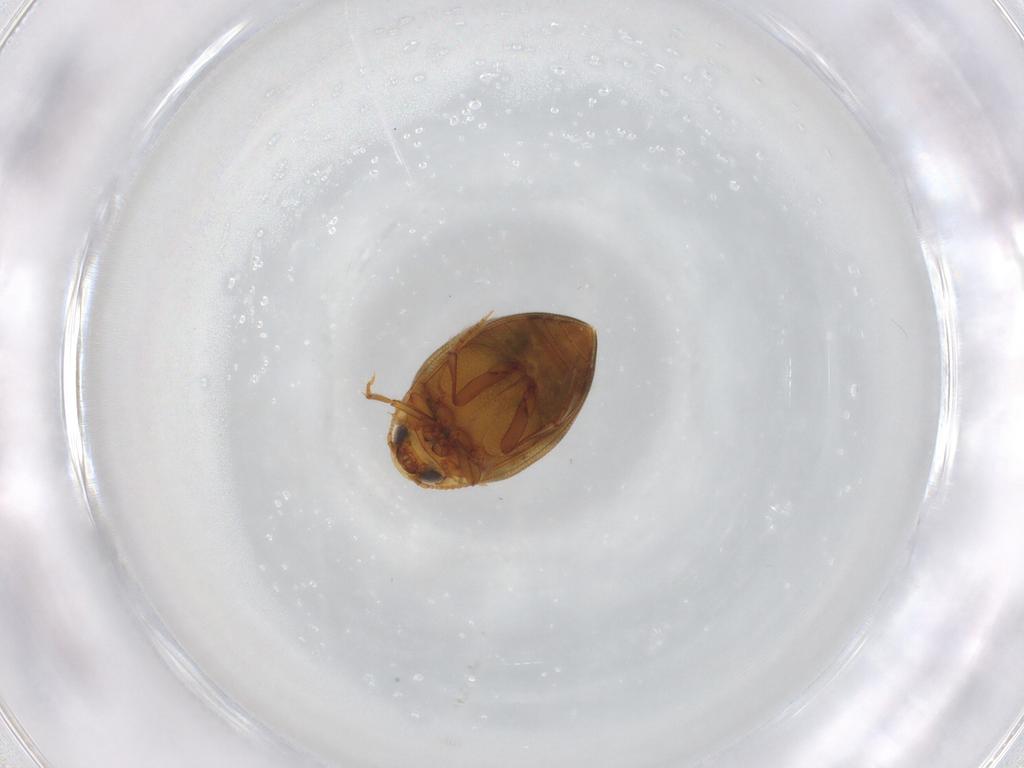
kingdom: Animalia
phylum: Arthropoda
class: Insecta
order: Coleoptera
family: Dytiscidae
